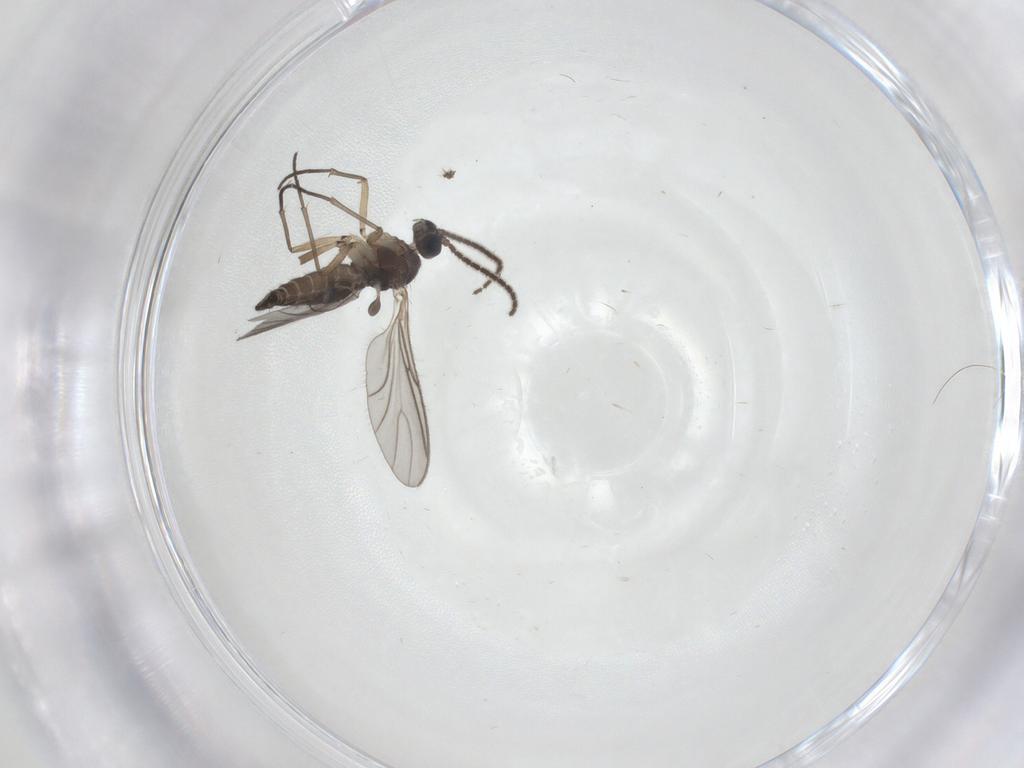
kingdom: Animalia
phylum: Arthropoda
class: Insecta
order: Diptera
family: Sciaridae
